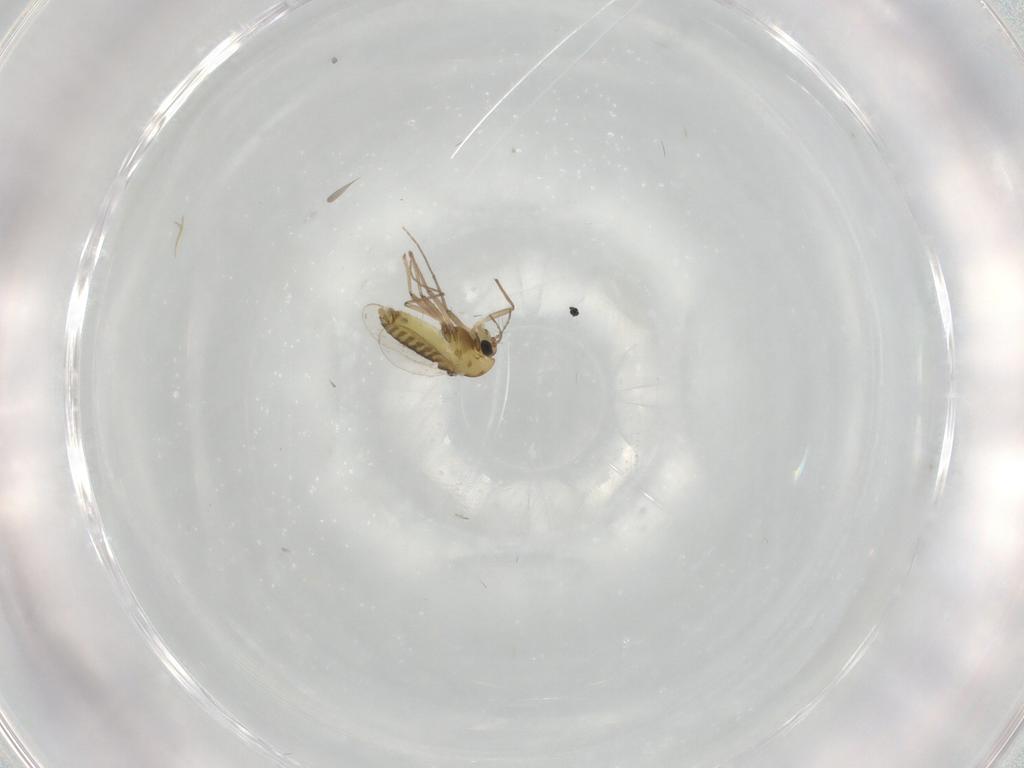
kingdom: Animalia
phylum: Arthropoda
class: Insecta
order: Diptera
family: Chironomidae
